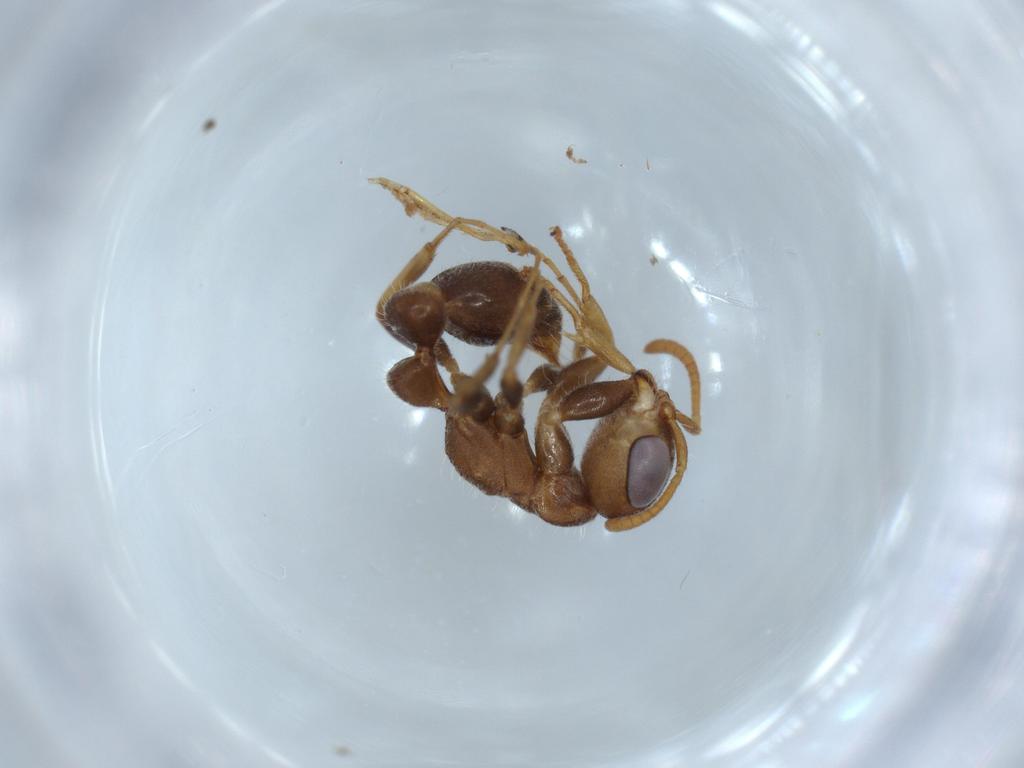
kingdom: Animalia
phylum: Arthropoda
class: Insecta
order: Hymenoptera
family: Formicidae
